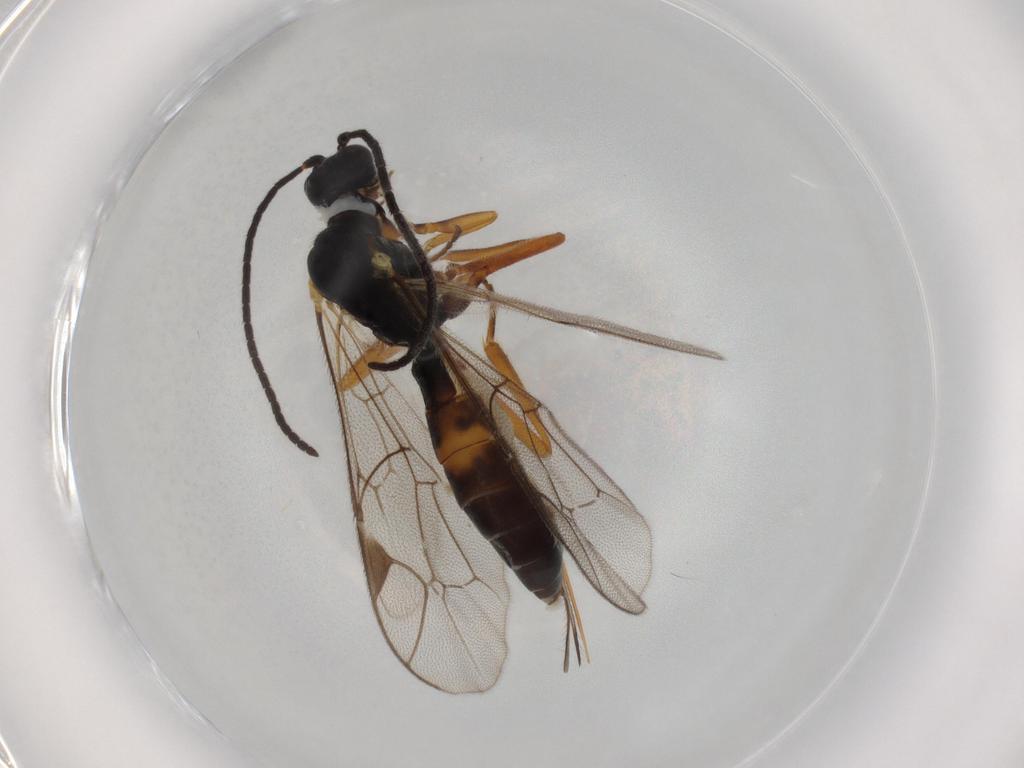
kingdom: Animalia
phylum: Arthropoda
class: Insecta
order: Hymenoptera
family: Ichneumonidae
